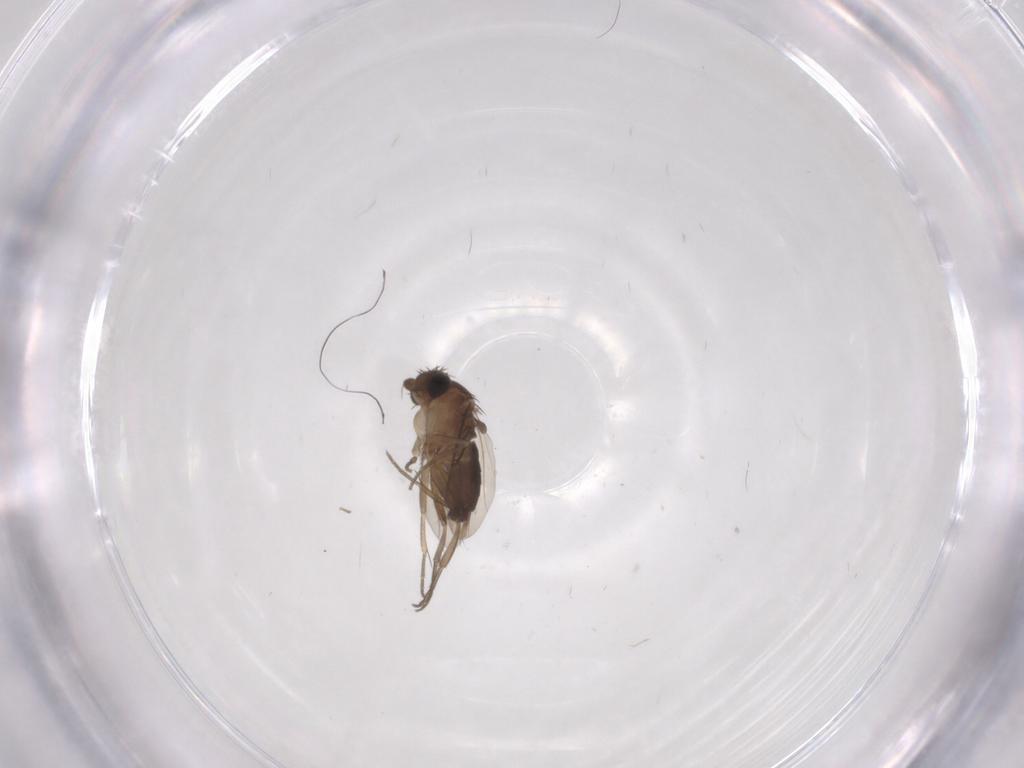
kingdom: Animalia
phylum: Arthropoda
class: Insecta
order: Diptera
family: Phoridae
